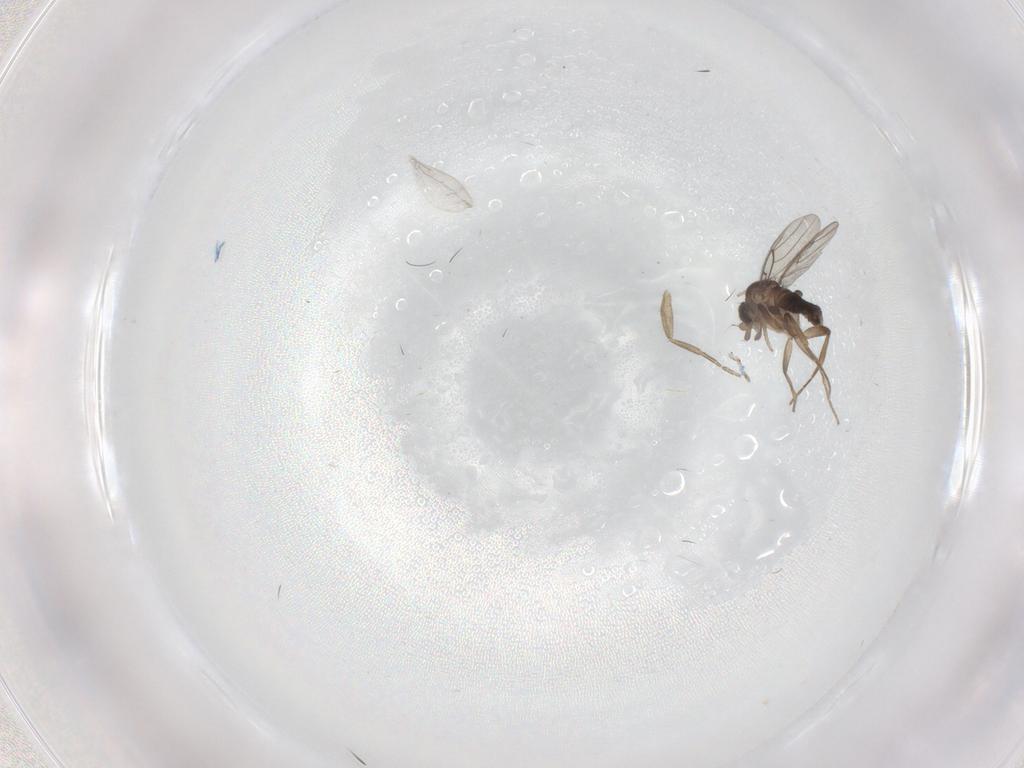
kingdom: Animalia
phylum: Arthropoda
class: Insecta
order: Diptera
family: Phoridae
